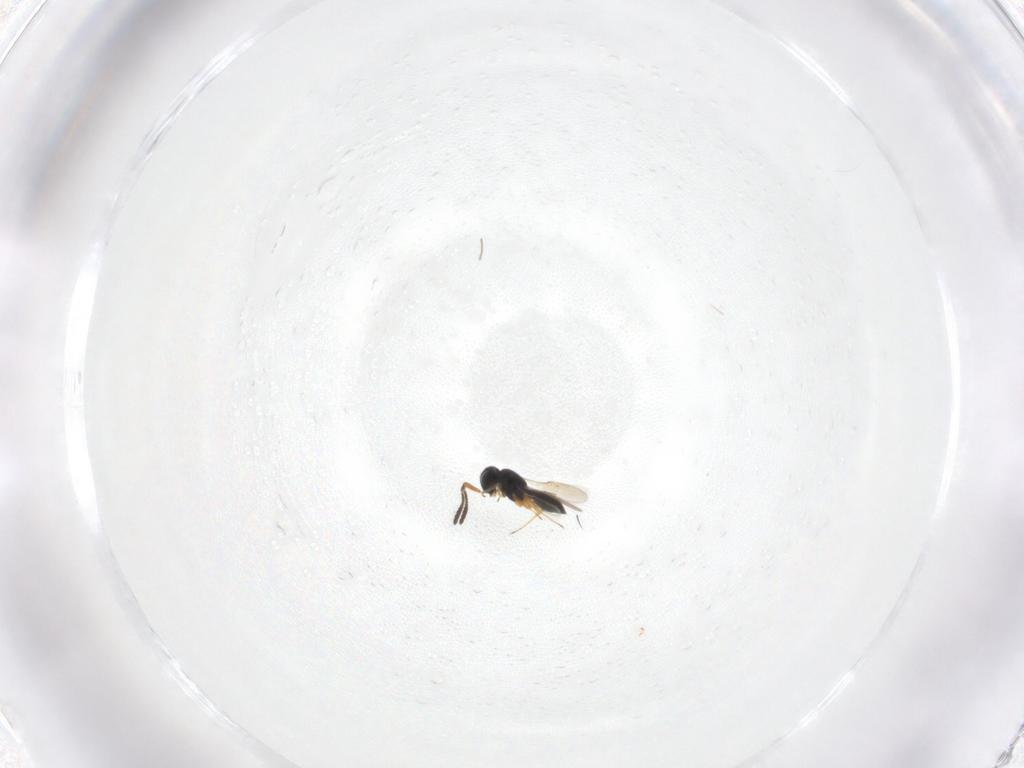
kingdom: Animalia
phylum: Arthropoda
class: Insecta
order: Hymenoptera
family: Scelionidae
